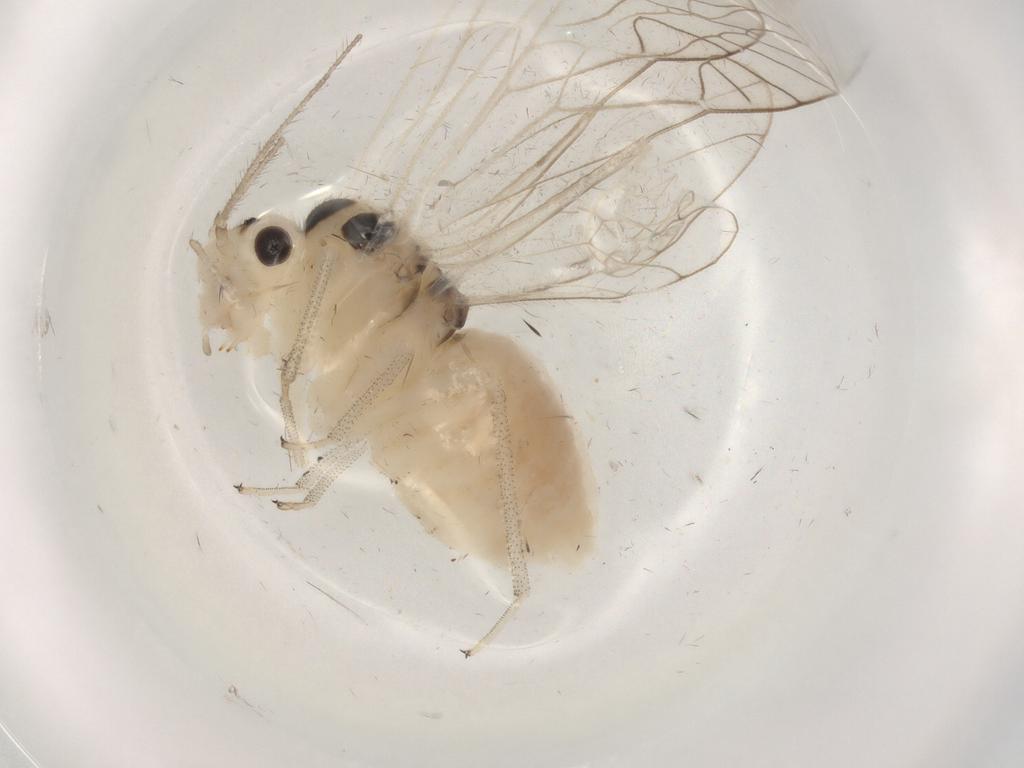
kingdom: Animalia
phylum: Arthropoda
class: Insecta
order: Psocodea
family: Amphipsocidae
